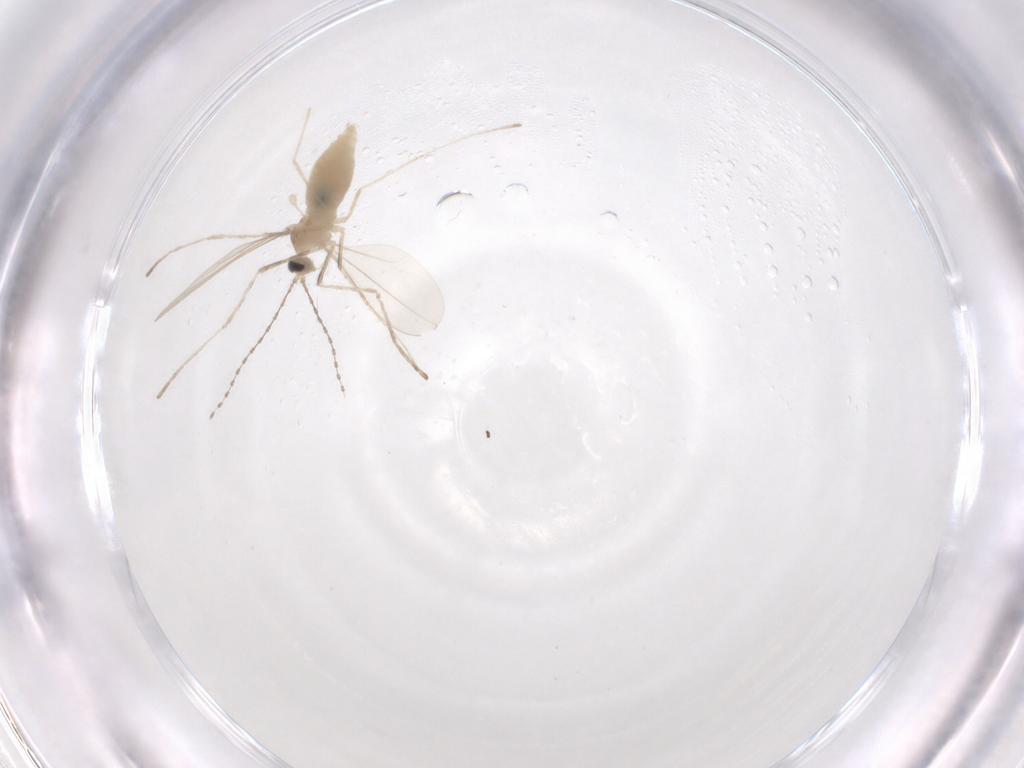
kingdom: Animalia
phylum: Arthropoda
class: Insecta
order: Diptera
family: Cecidomyiidae
